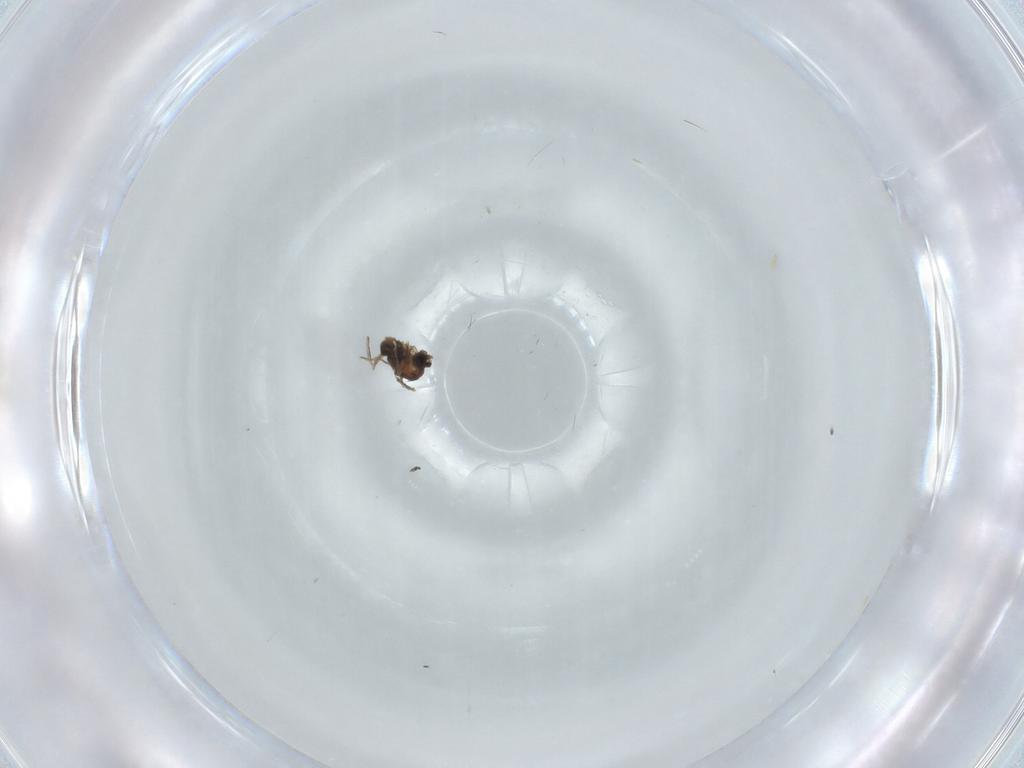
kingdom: Animalia
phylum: Arthropoda
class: Insecta
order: Diptera
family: Cecidomyiidae
